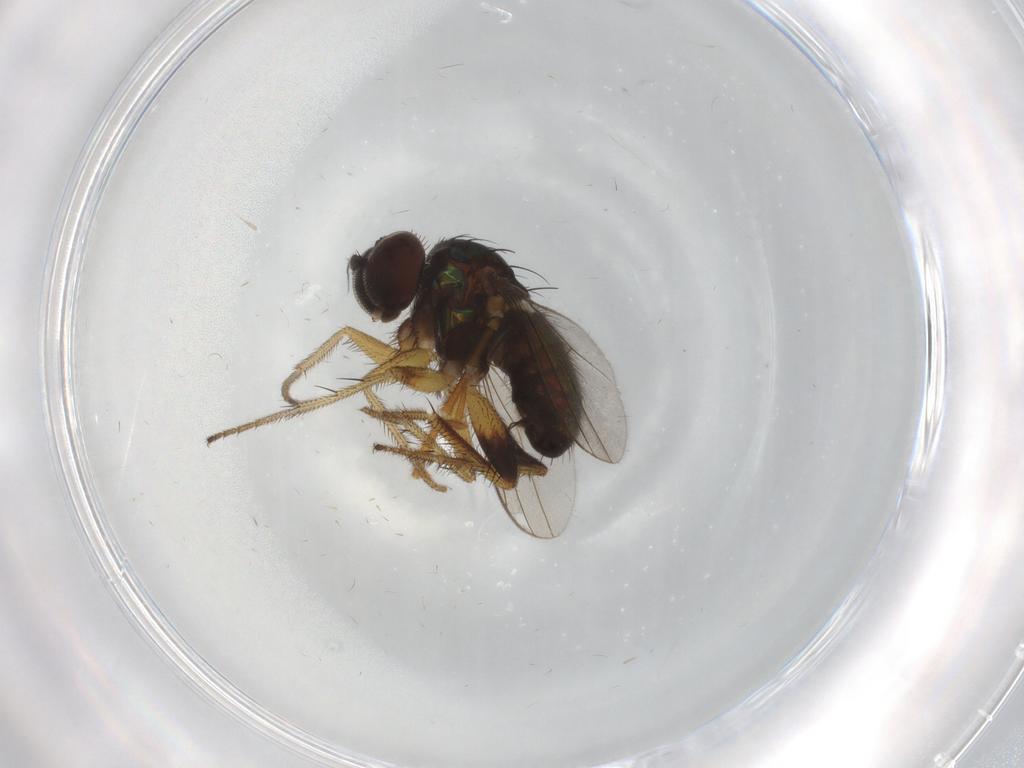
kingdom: Animalia
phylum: Arthropoda
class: Insecta
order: Diptera
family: Dolichopodidae
